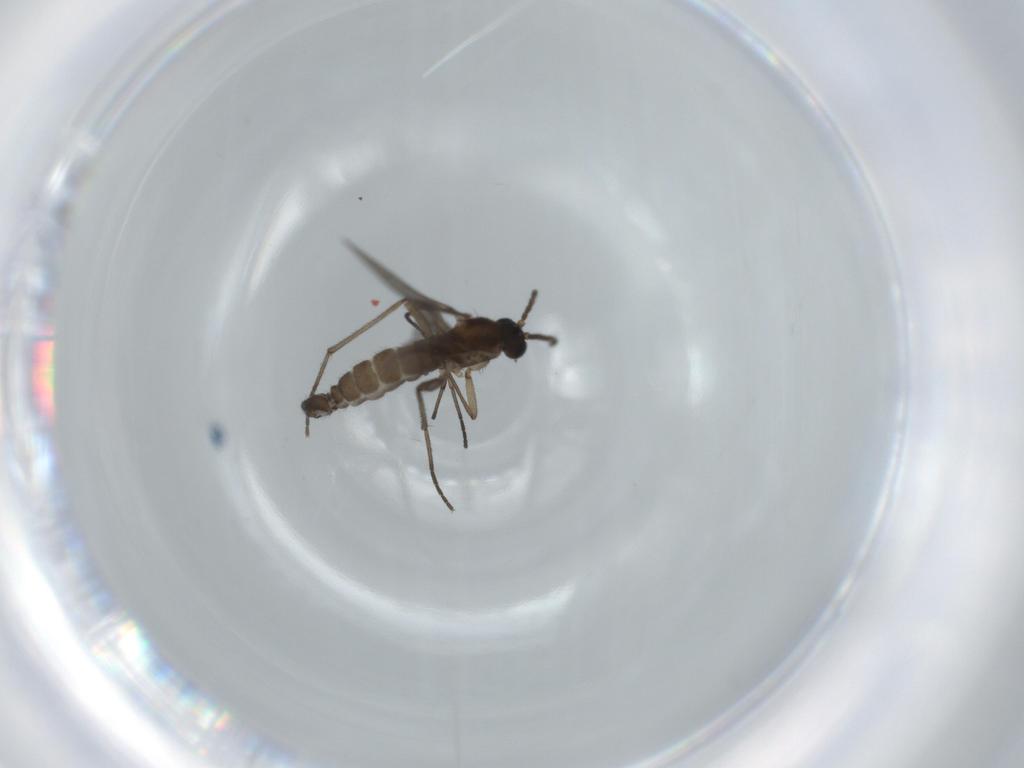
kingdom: Animalia
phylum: Arthropoda
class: Insecta
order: Diptera
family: Sciaridae
